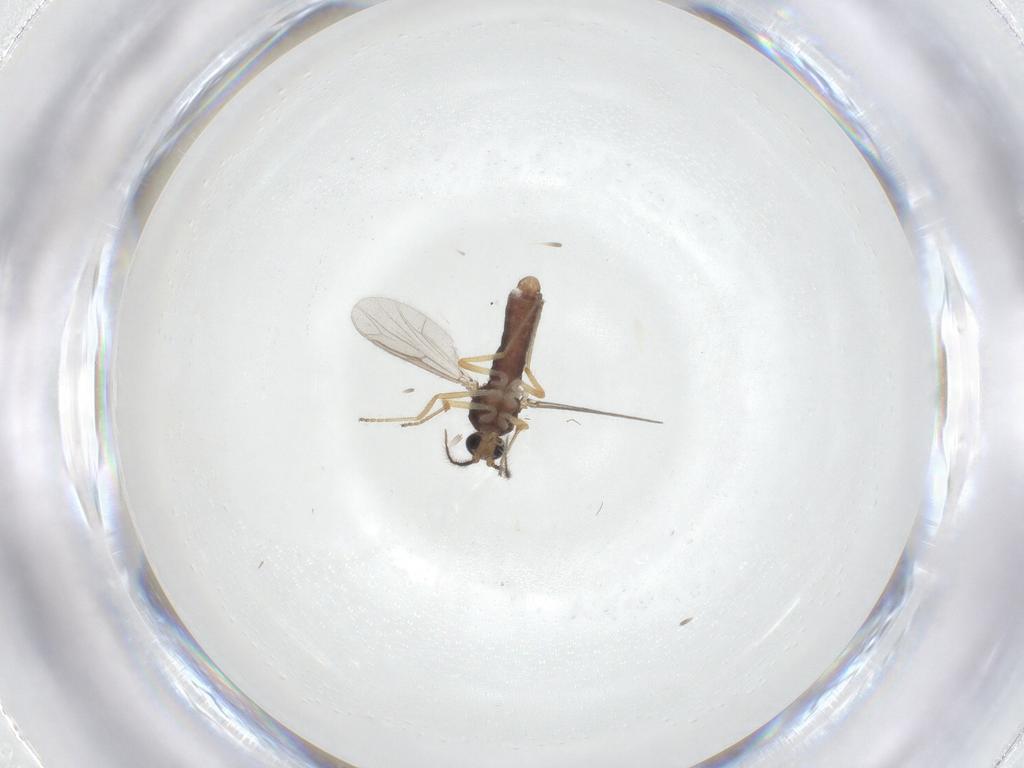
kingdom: Animalia
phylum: Arthropoda
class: Insecta
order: Diptera
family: Ceratopogonidae
